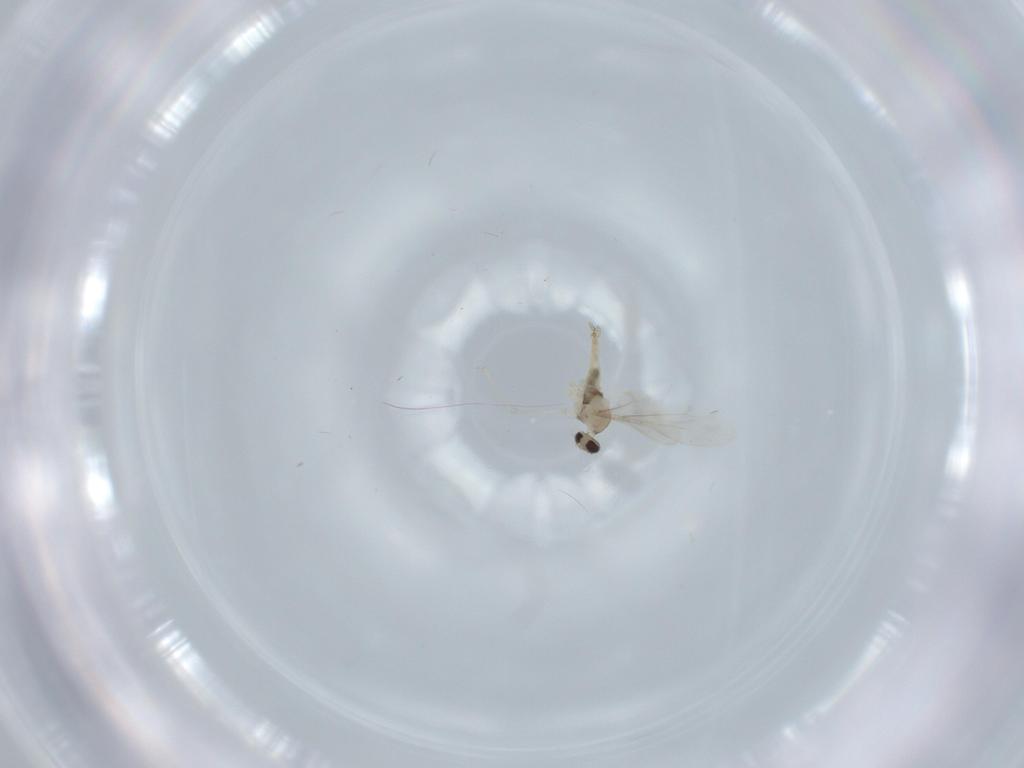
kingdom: Animalia
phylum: Arthropoda
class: Insecta
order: Diptera
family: Cecidomyiidae
